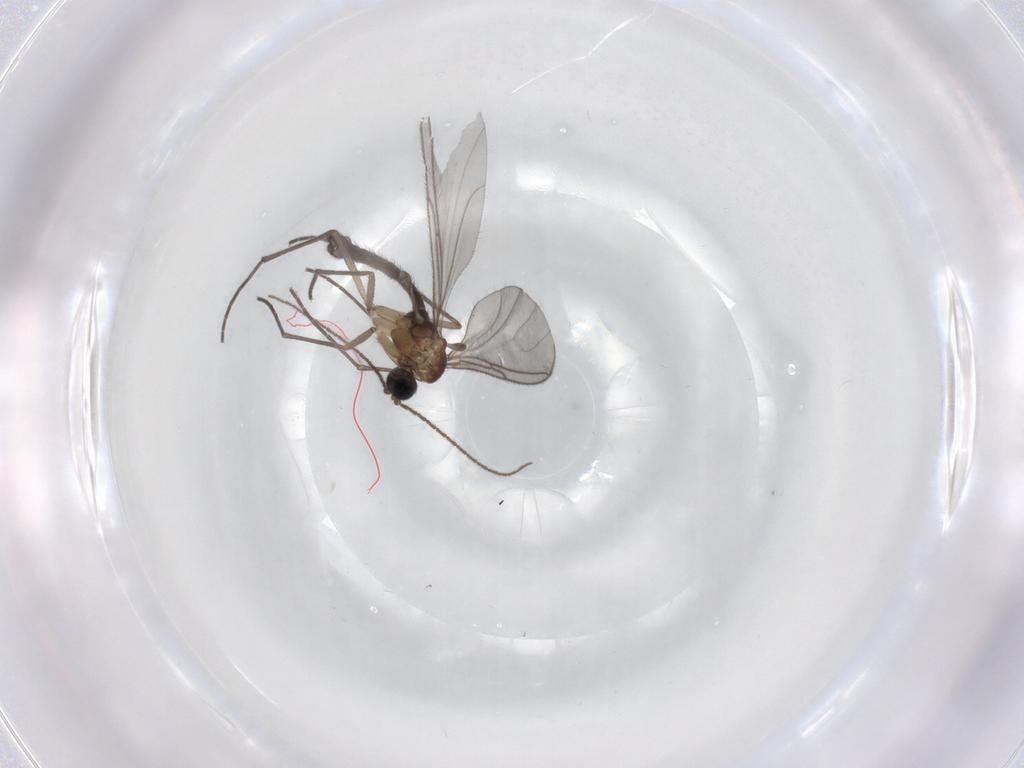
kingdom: Animalia
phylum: Arthropoda
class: Insecta
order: Diptera
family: Sciaridae
